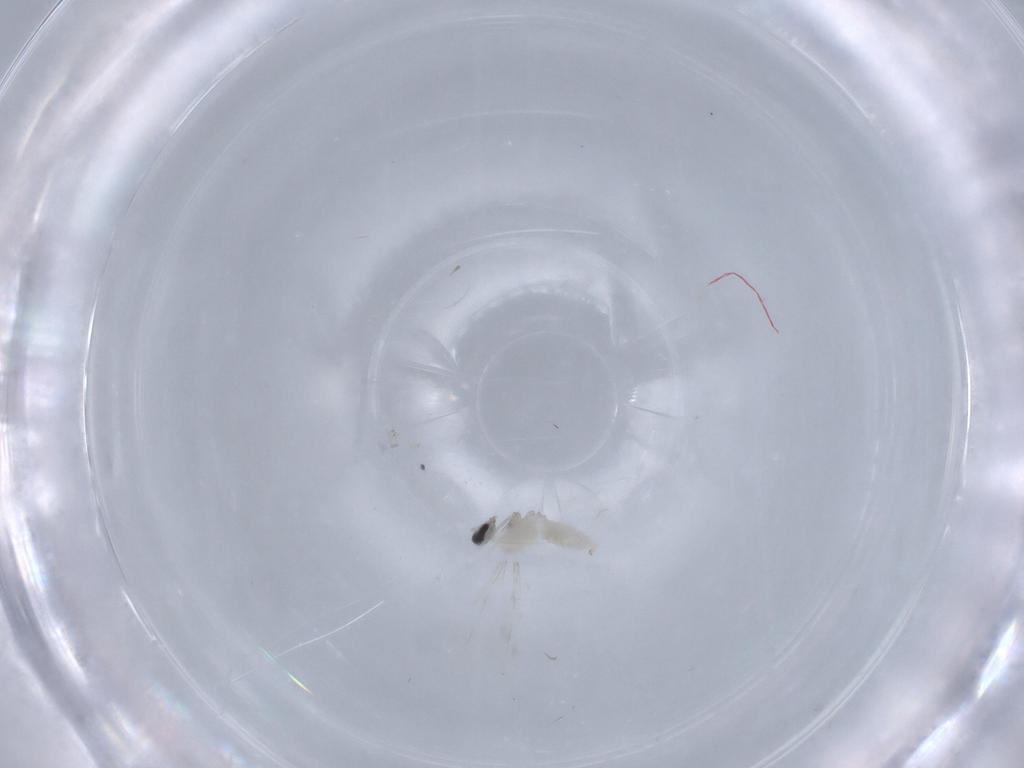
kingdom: Animalia
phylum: Arthropoda
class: Insecta
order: Diptera
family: Cecidomyiidae
